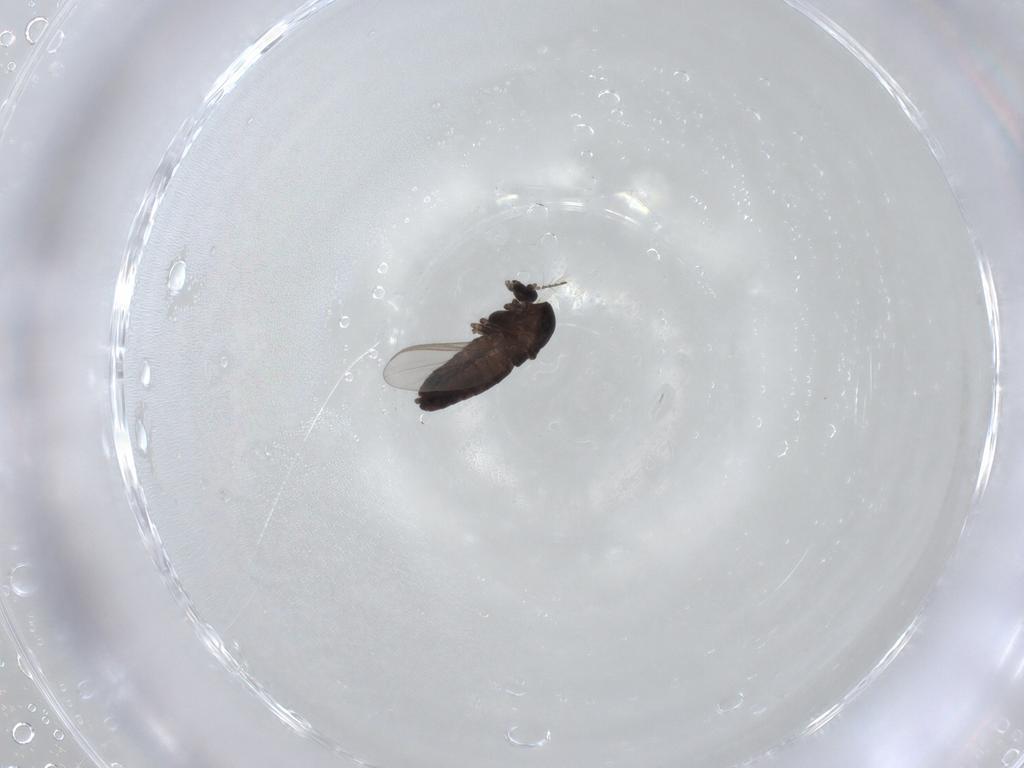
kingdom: Animalia
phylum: Arthropoda
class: Insecta
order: Diptera
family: Chironomidae
